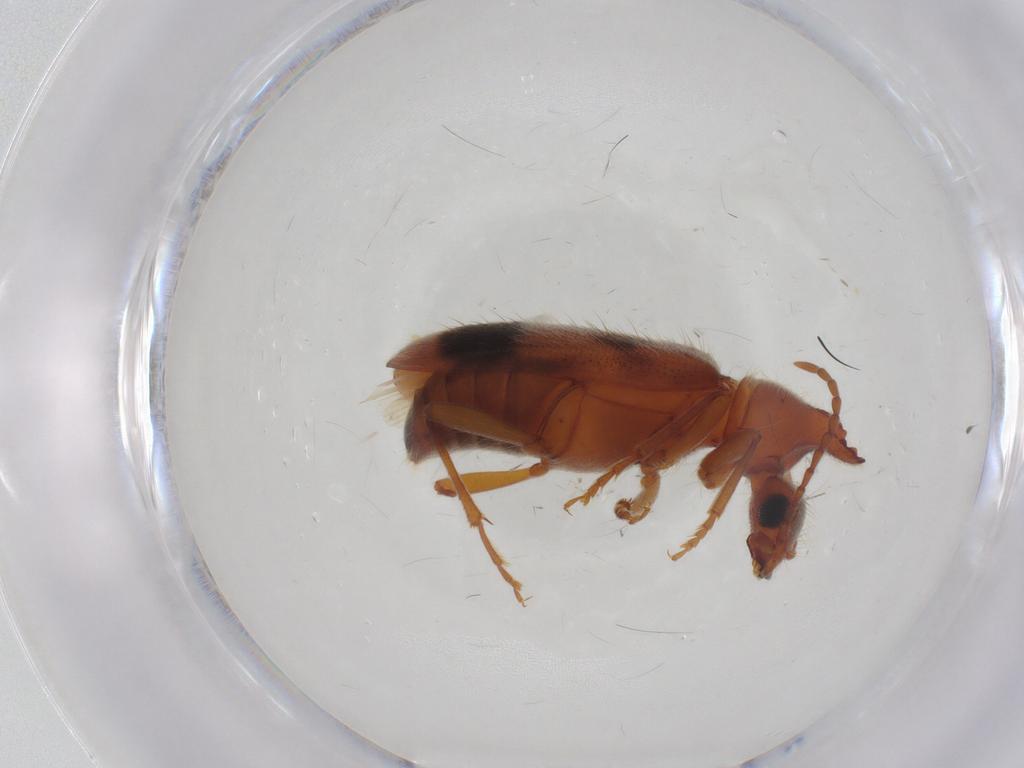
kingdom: Animalia
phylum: Arthropoda
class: Insecta
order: Coleoptera
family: Anthicidae
